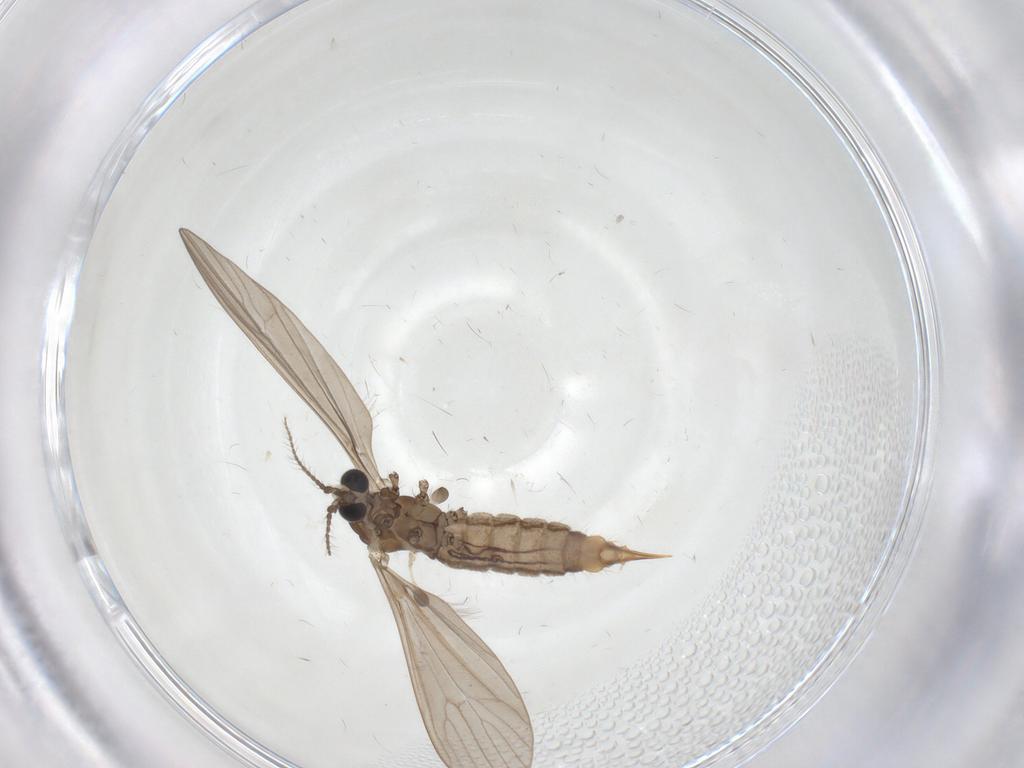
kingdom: Animalia
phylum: Arthropoda
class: Insecta
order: Diptera
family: Limoniidae
